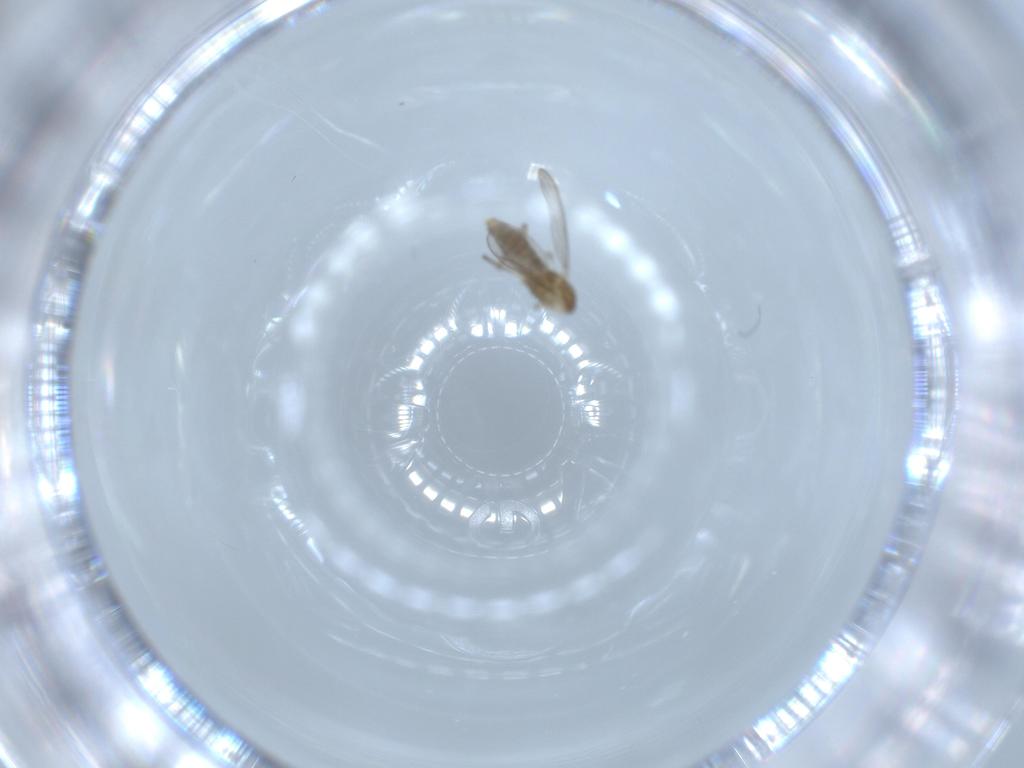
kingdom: Animalia
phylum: Arthropoda
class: Insecta
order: Diptera
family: Chironomidae
